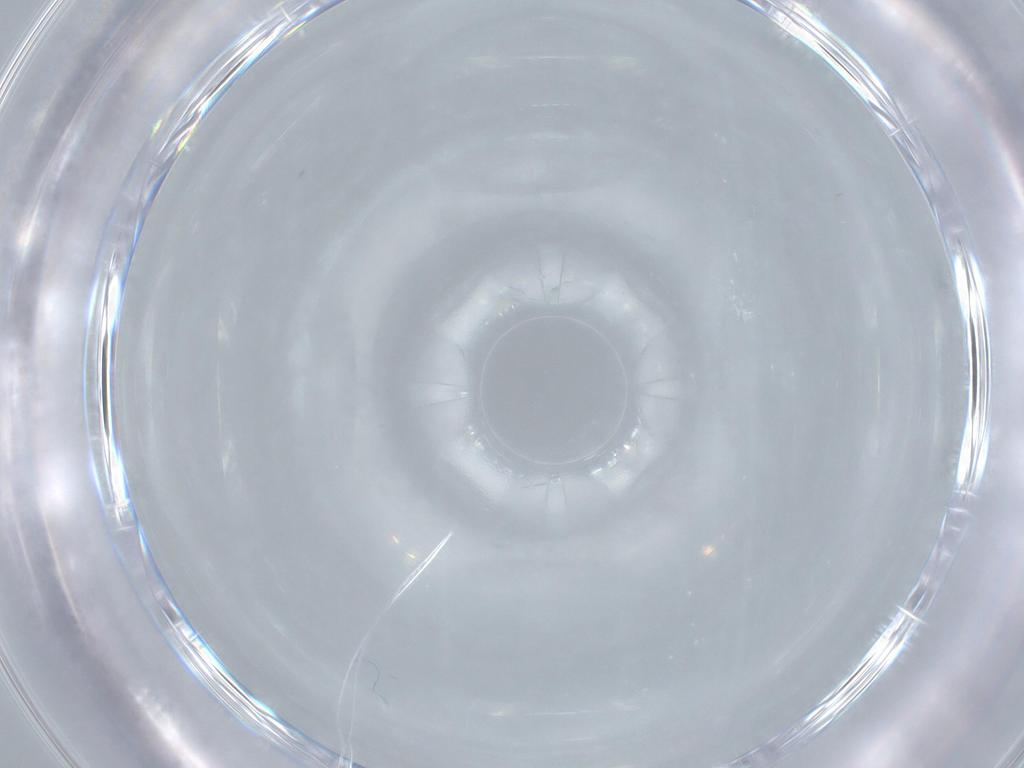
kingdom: Animalia
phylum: Arthropoda
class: Insecta
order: Diptera
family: Cecidomyiidae
